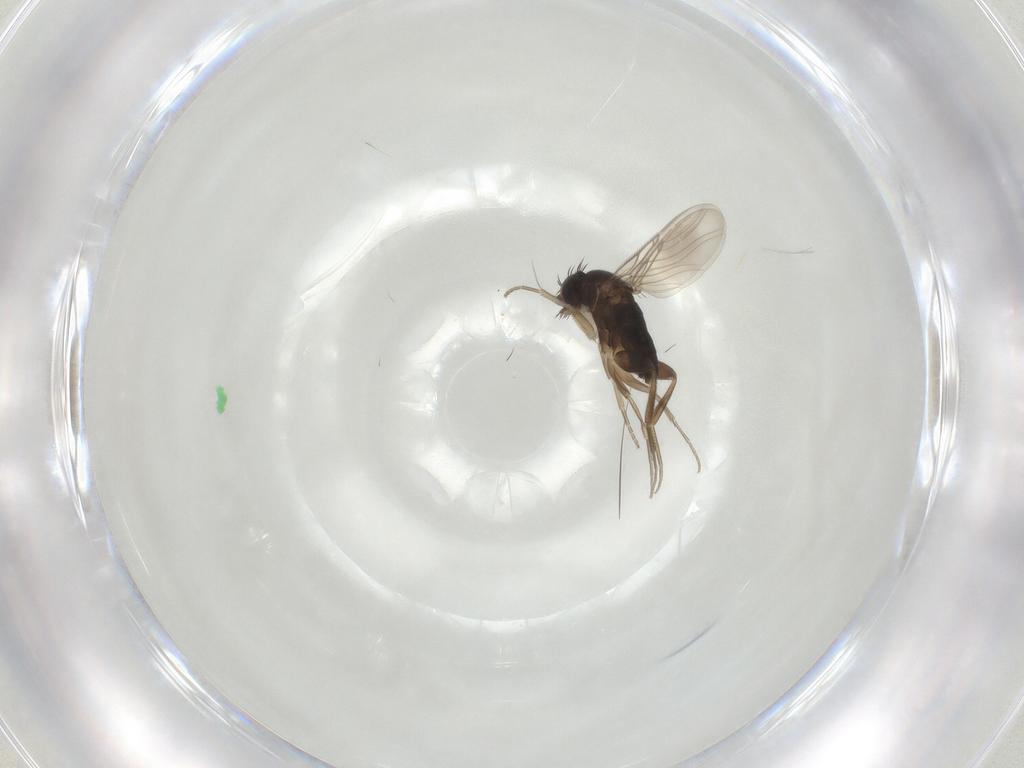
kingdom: Animalia
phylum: Arthropoda
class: Insecta
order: Diptera
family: Phoridae
